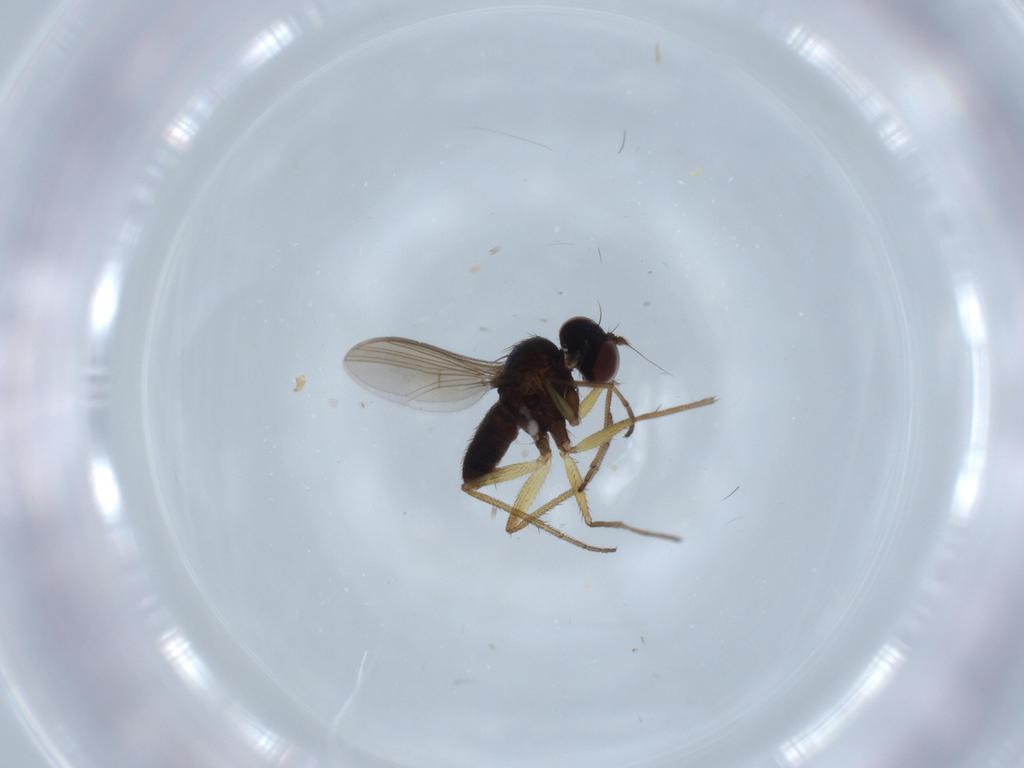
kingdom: Animalia
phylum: Arthropoda
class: Insecta
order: Diptera
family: Dolichopodidae
